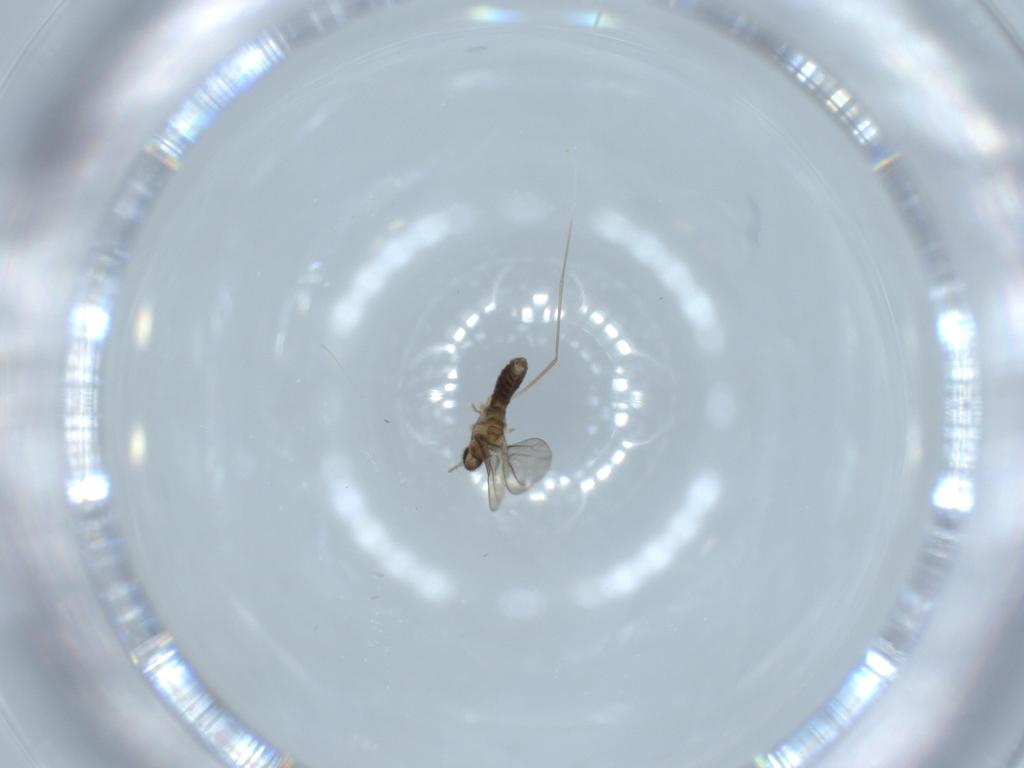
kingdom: Animalia
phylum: Arthropoda
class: Insecta
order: Diptera
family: Cecidomyiidae
